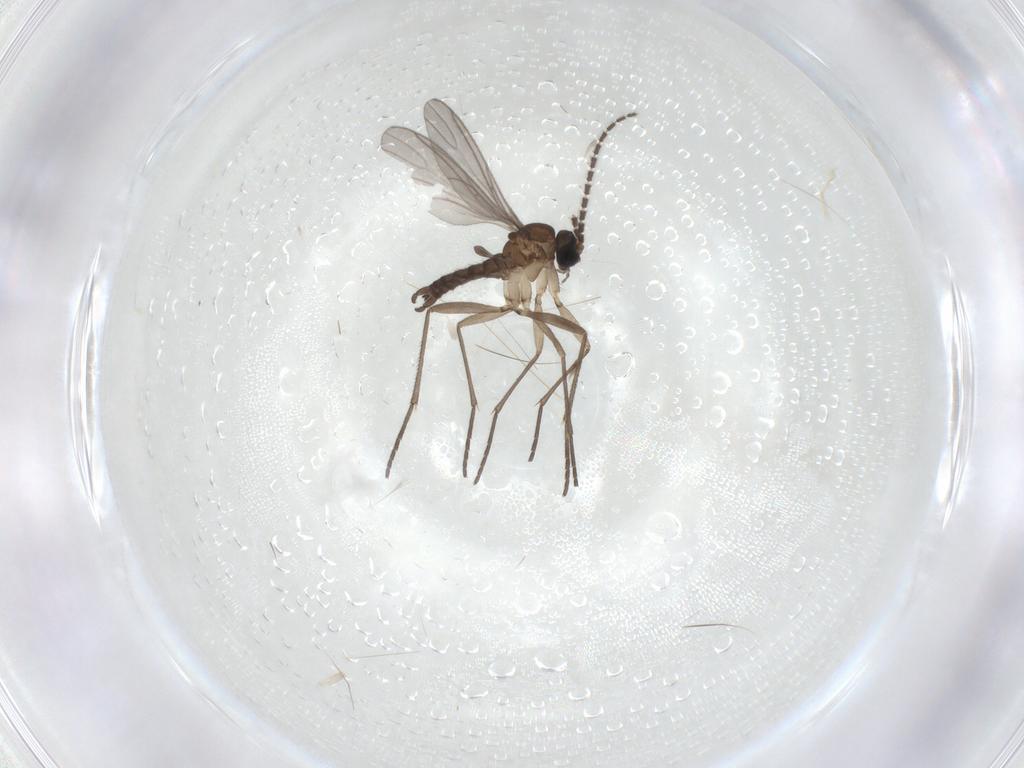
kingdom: Animalia
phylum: Arthropoda
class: Insecta
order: Diptera
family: Sciaridae
